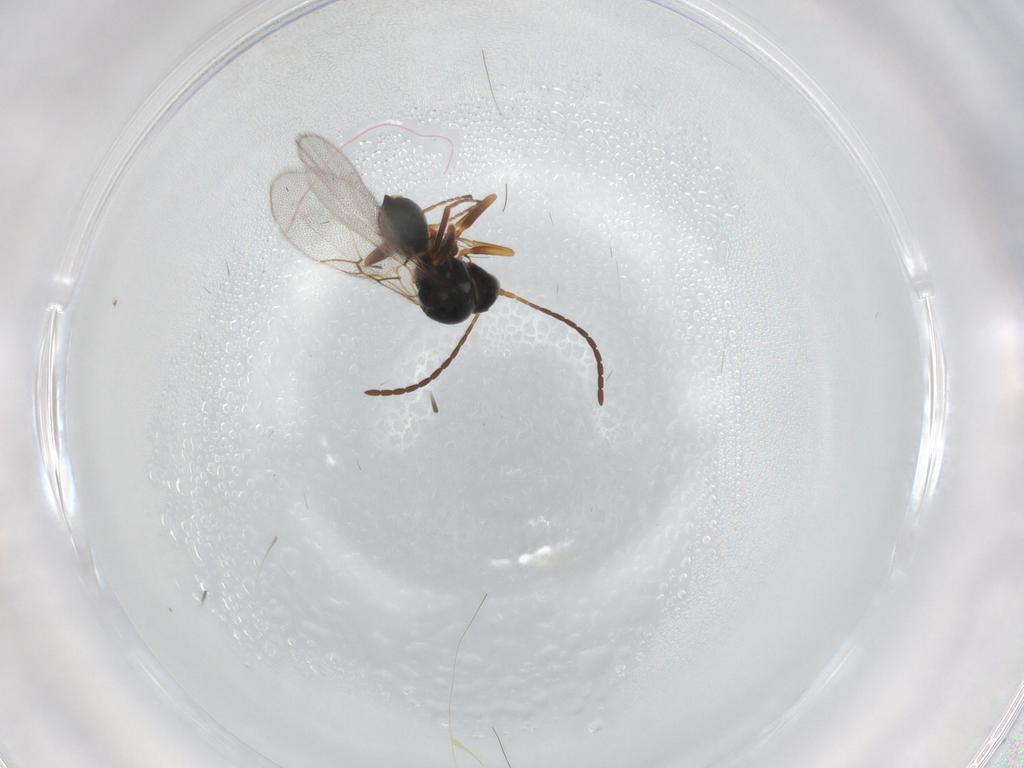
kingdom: Animalia
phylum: Arthropoda
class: Insecta
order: Hymenoptera
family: Figitidae
